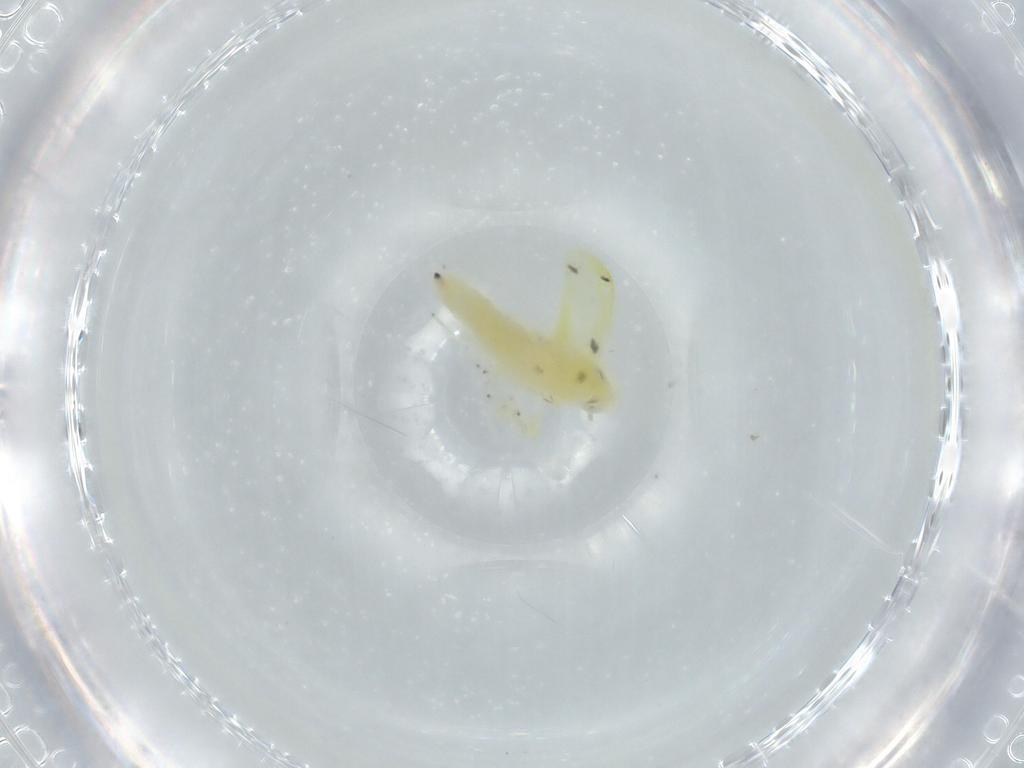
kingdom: Animalia
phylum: Arthropoda
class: Insecta
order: Hemiptera
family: Cicadellidae
